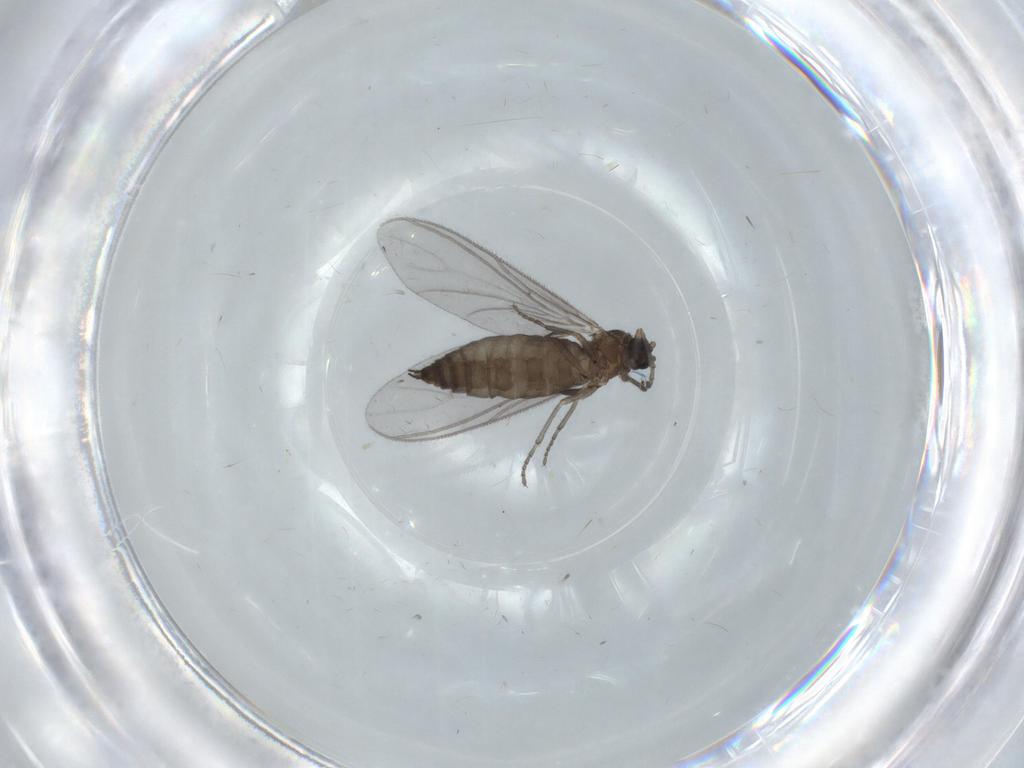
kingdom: Animalia
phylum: Arthropoda
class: Insecta
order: Diptera
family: Sciaridae
